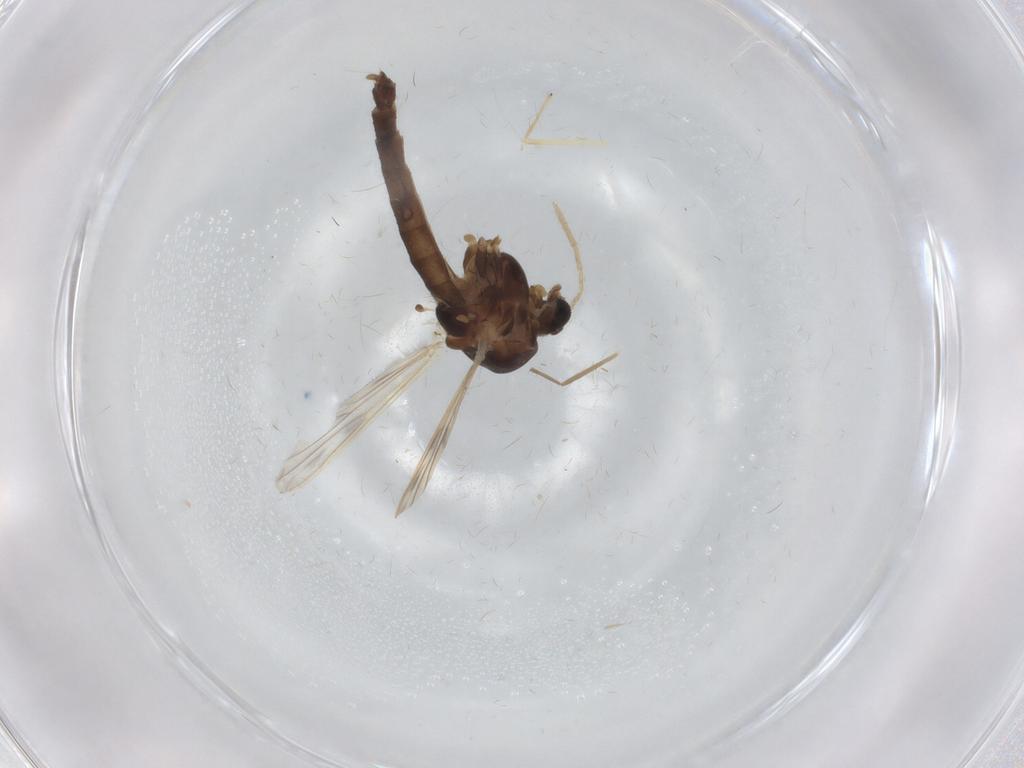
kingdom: Animalia
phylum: Arthropoda
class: Insecta
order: Diptera
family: Chironomidae
